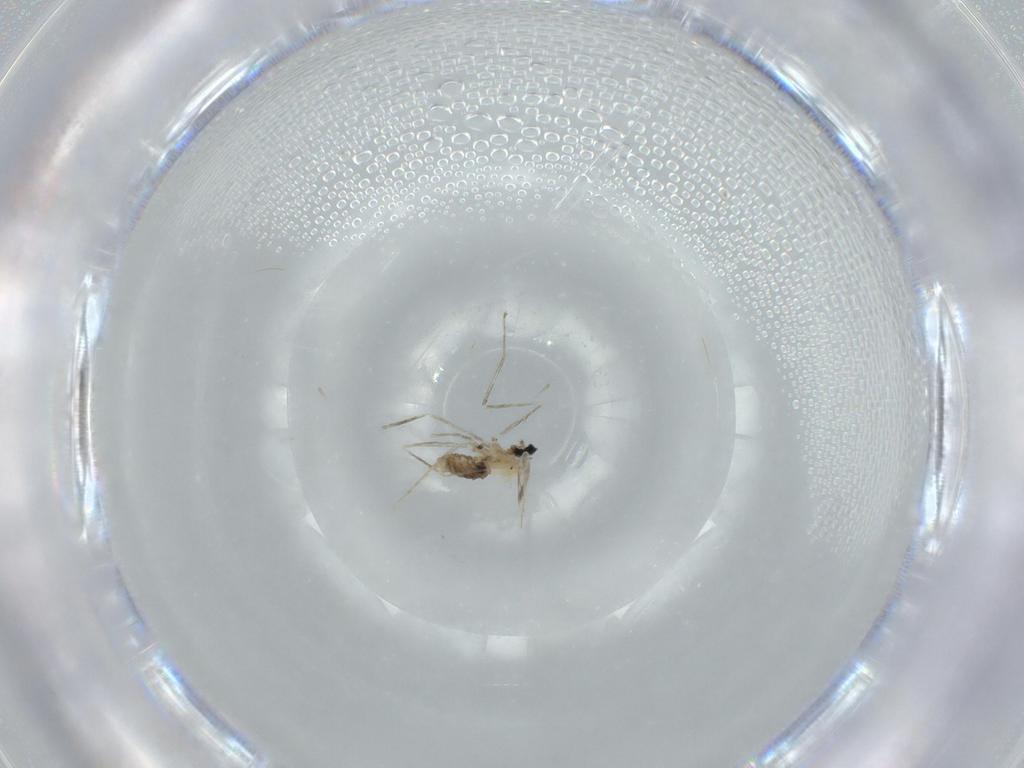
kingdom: Animalia
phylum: Arthropoda
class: Insecta
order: Diptera
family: Cecidomyiidae
